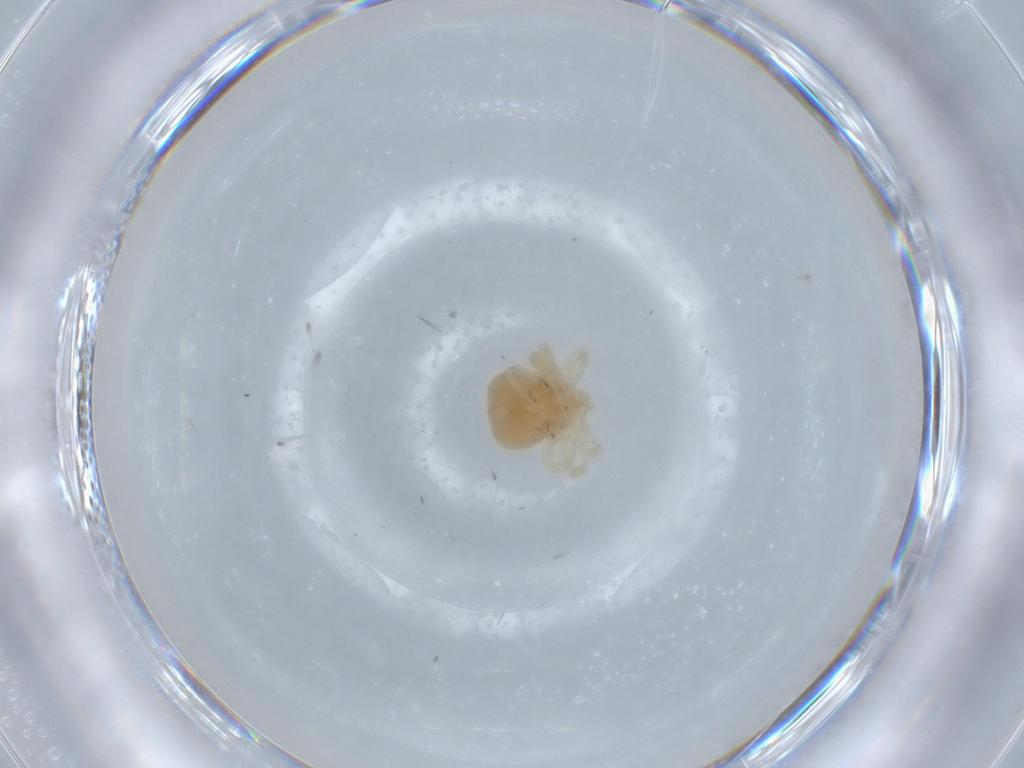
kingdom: Animalia
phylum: Arthropoda
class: Arachnida
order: Trombidiformes
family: Anystidae
